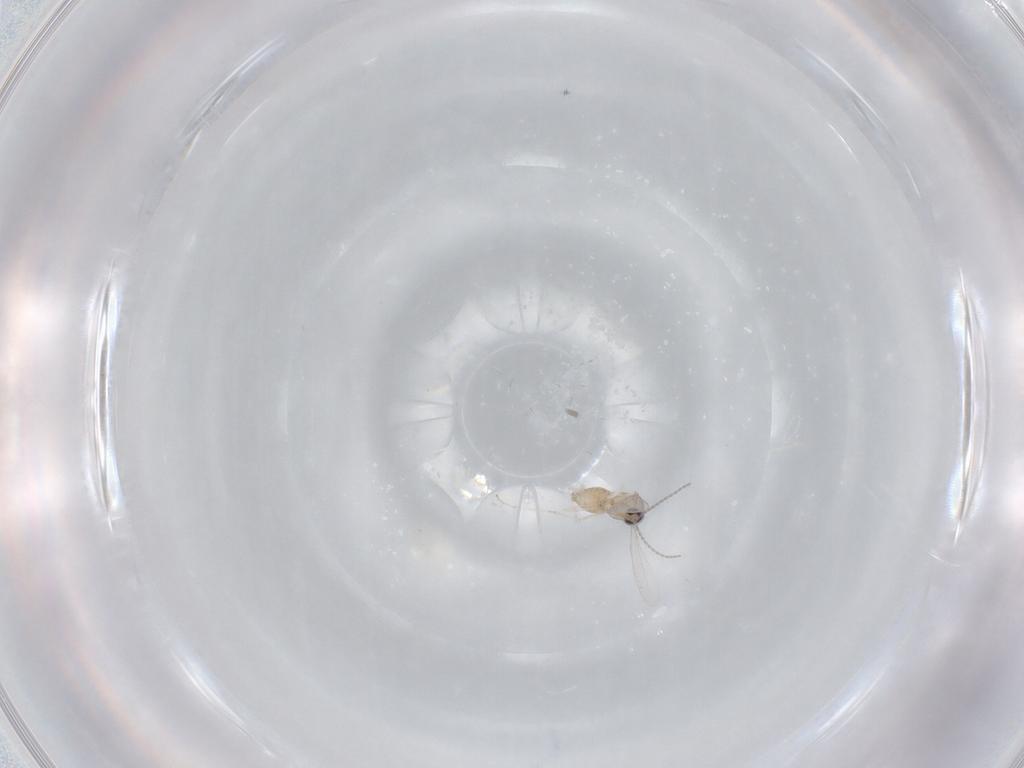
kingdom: Animalia
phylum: Arthropoda
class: Insecta
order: Diptera
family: Cecidomyiidae
